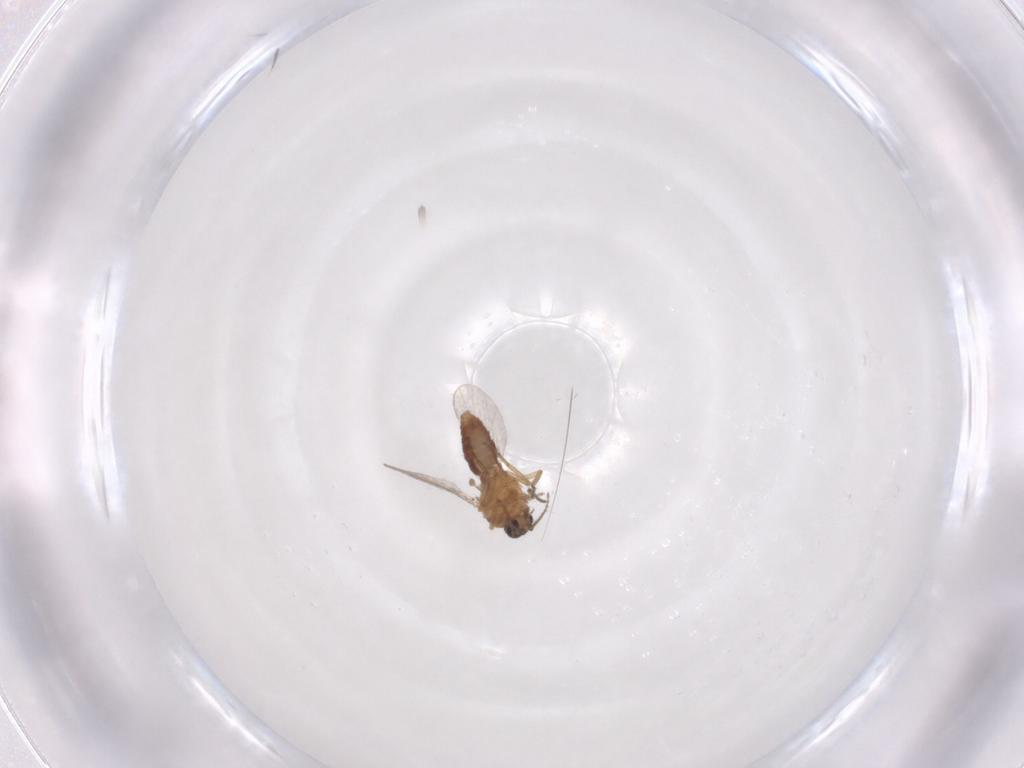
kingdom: Animalia
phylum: Arthropoda
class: Insecta
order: Diptera
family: Ceratopogonidae
